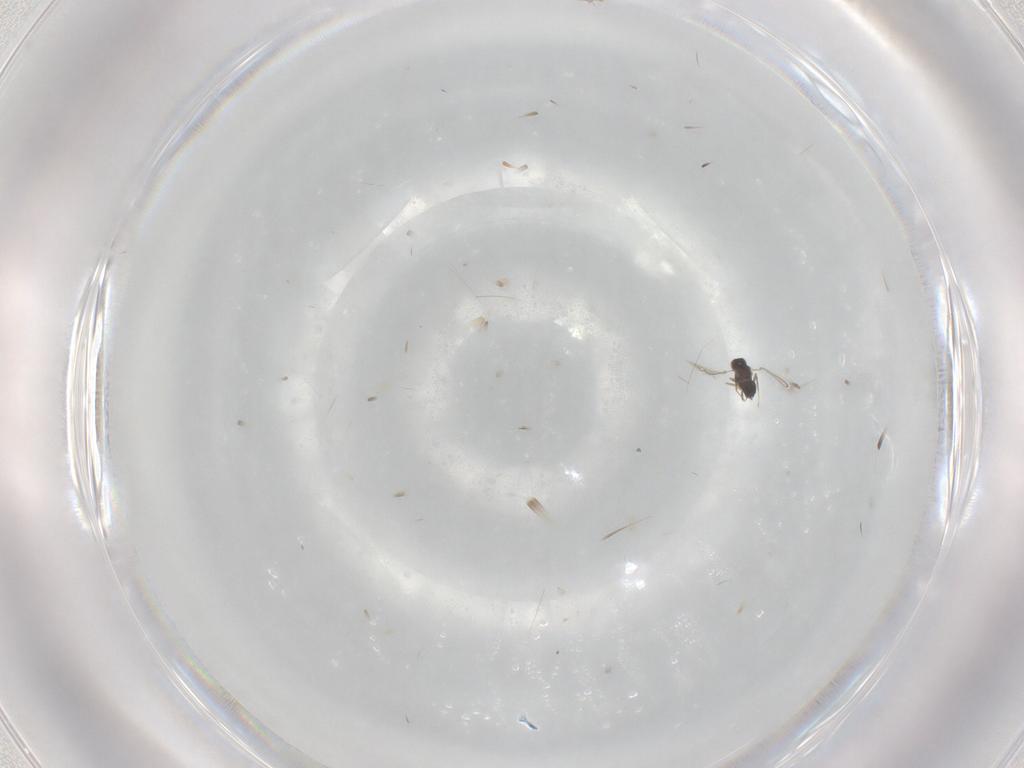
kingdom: Animalia
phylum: Arthropoda
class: Insecta
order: Hymenoptera
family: Mymaridae
